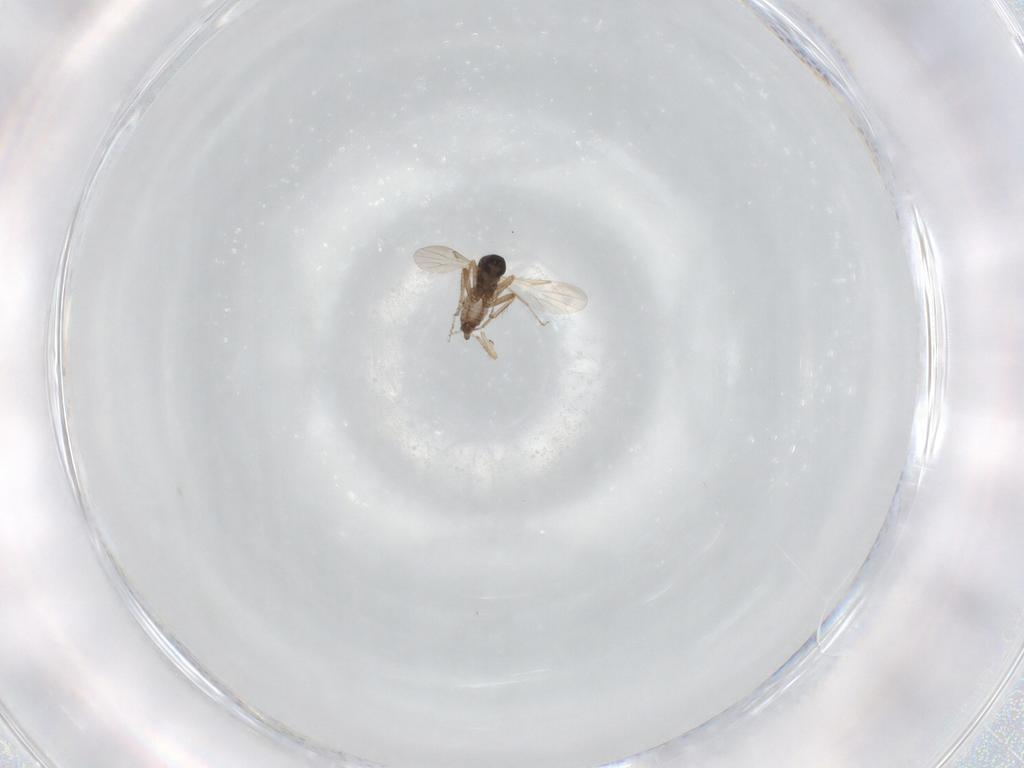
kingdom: Animalia
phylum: Arthropoda
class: Insecta
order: Diptera
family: Ceratopogonidae
